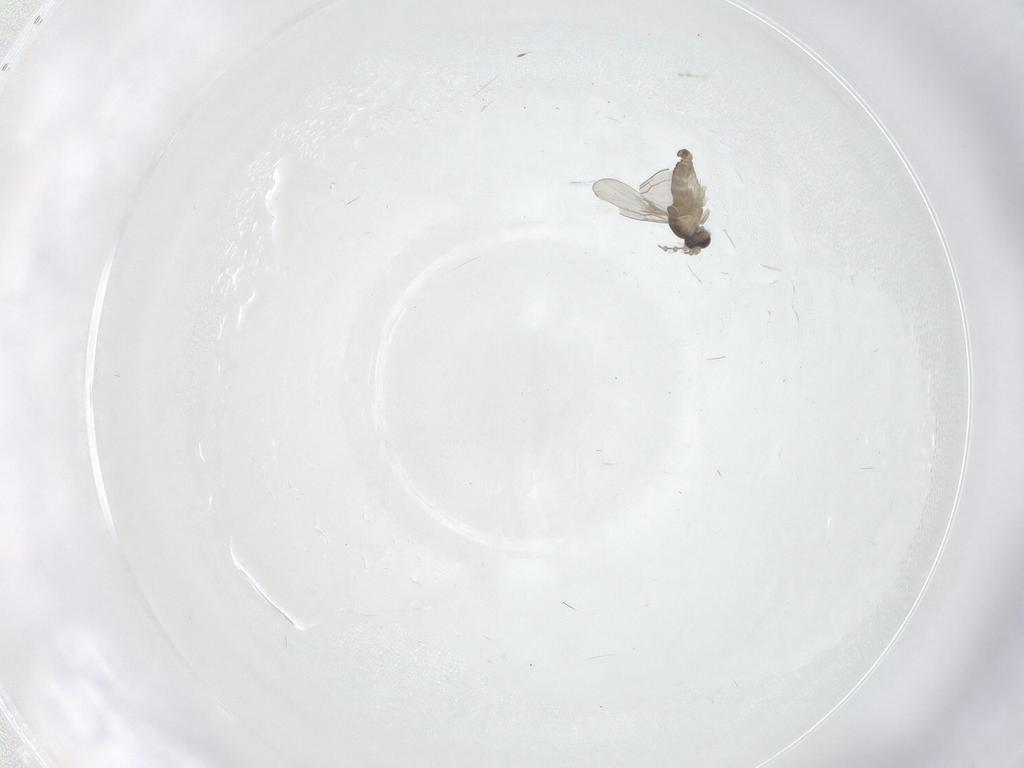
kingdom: Animalia
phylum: Arthropoda
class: Insecta
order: Diptera
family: Cecidomyiidae
